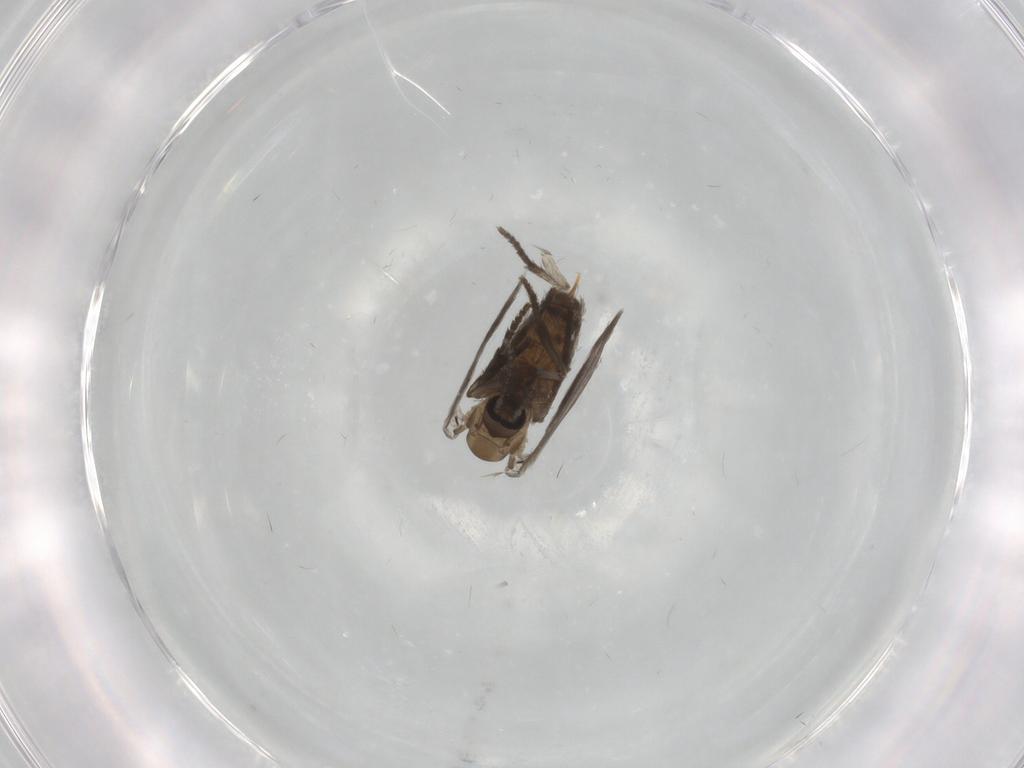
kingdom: Animalia
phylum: Arthropoda
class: Insecta
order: Diptera
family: Psychodidae
